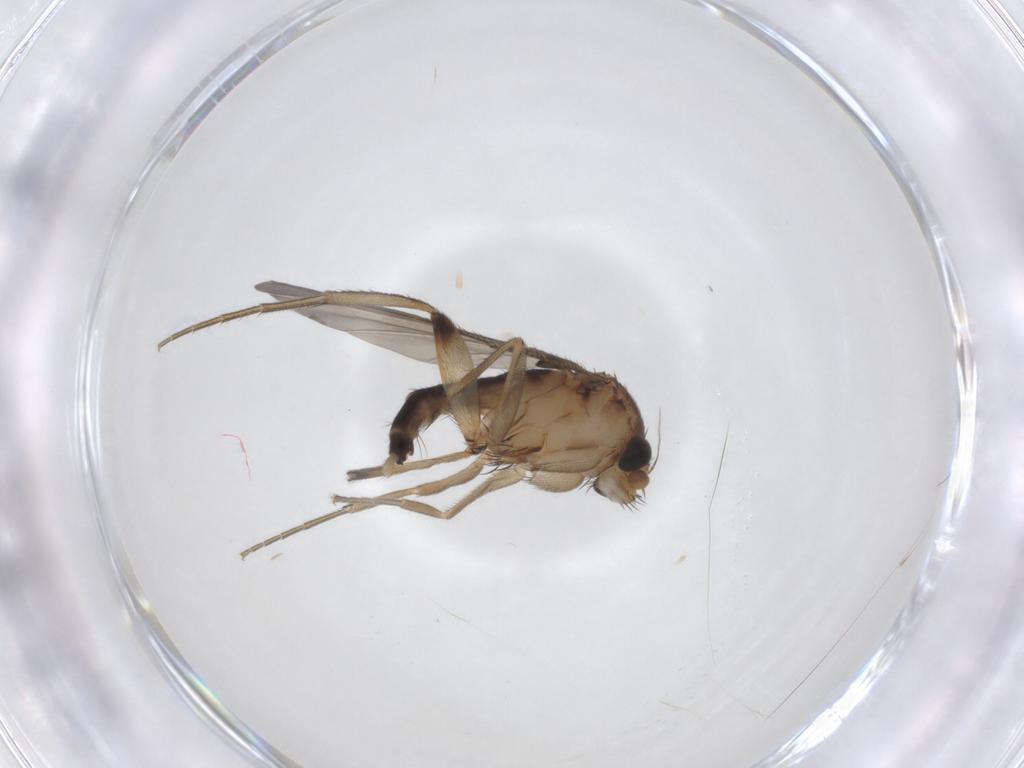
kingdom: Animalia
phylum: Arthropoda
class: Insecta
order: Diptera
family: Phoridae
